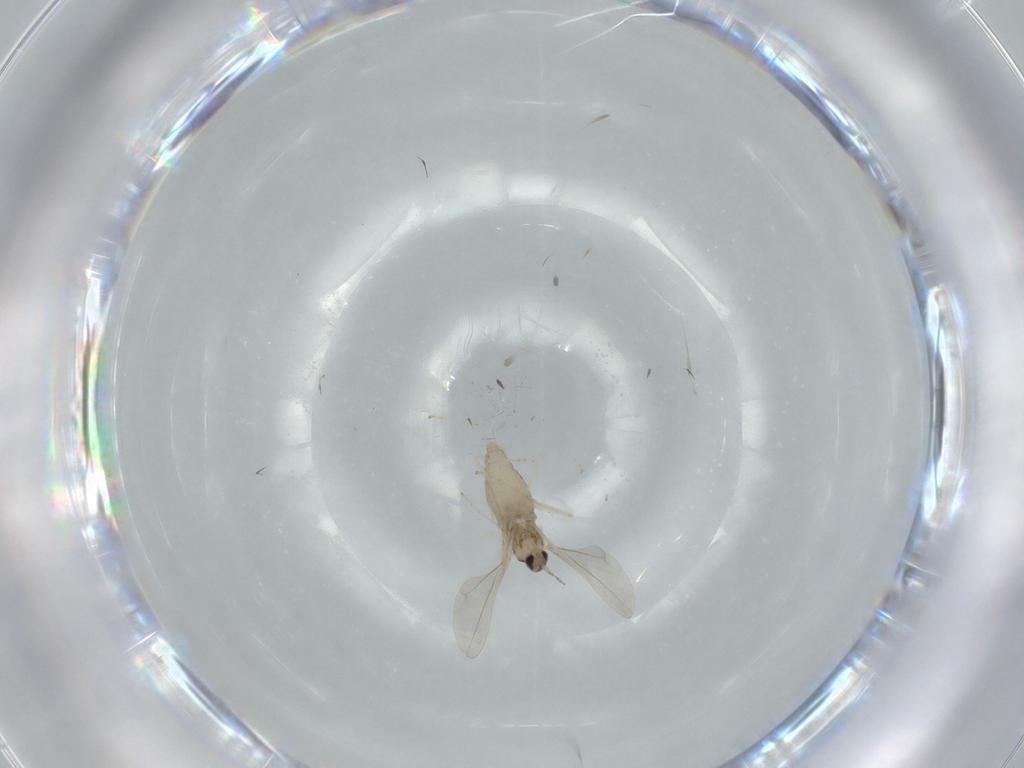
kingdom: Animalia
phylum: Arthropoda
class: Insecta
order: Diptera
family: Cecidomyiidae
